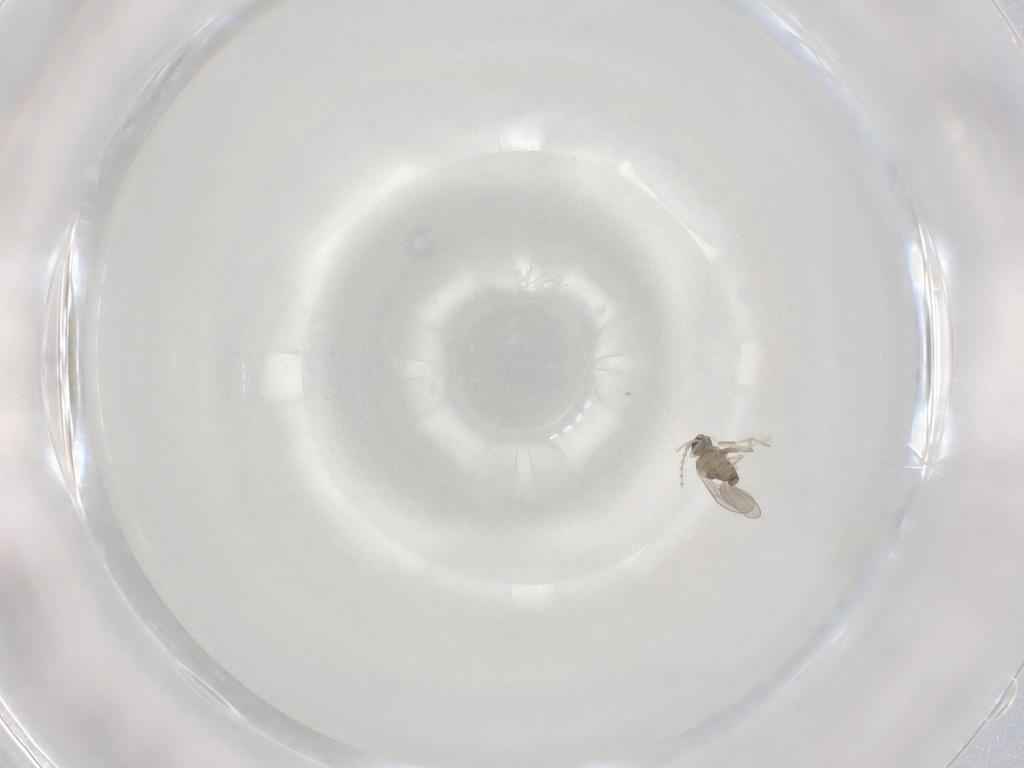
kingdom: Animalia
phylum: Arthropoda
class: Insecta
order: Diptera
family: Cecidomyiidae
